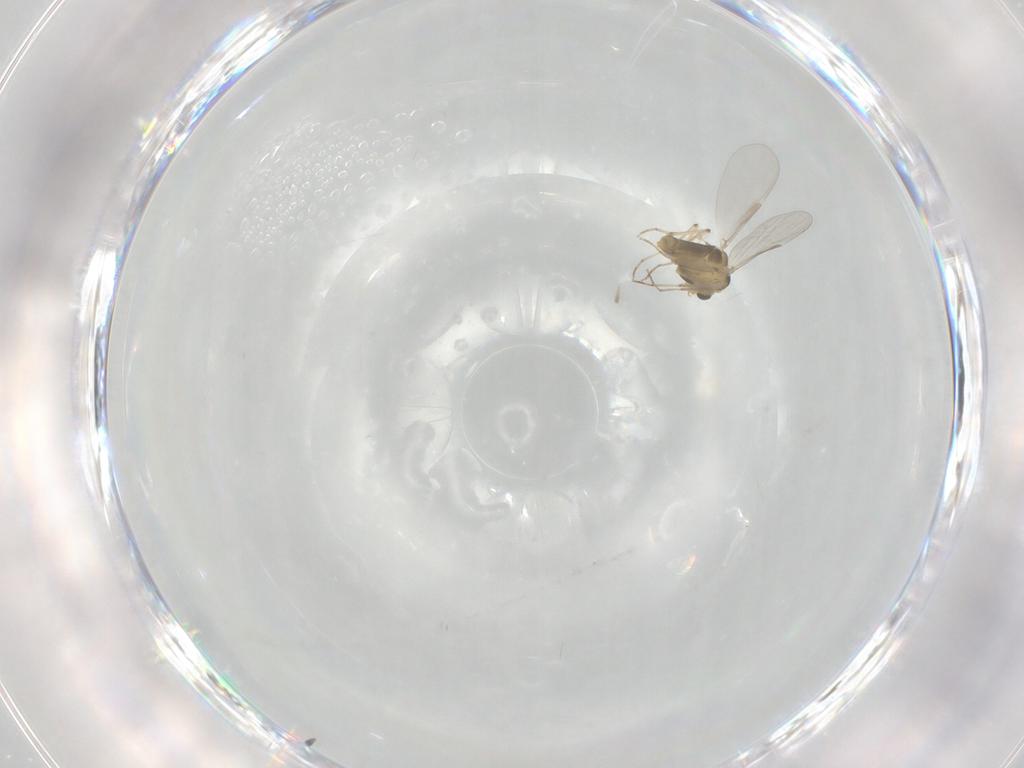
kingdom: Animalia
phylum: Arthropoda
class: Insecta
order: Diptera
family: Chironomidae
